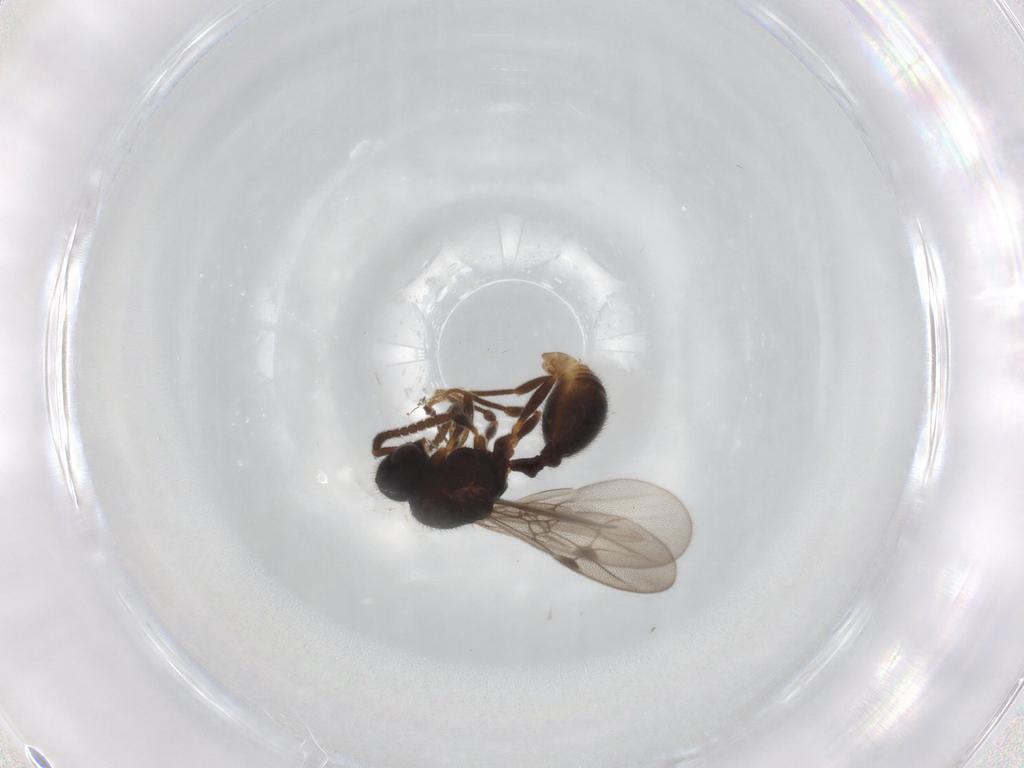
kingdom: Animalia
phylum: Arthropoda
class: Insecta
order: Hymenoptera
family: Formicidae
